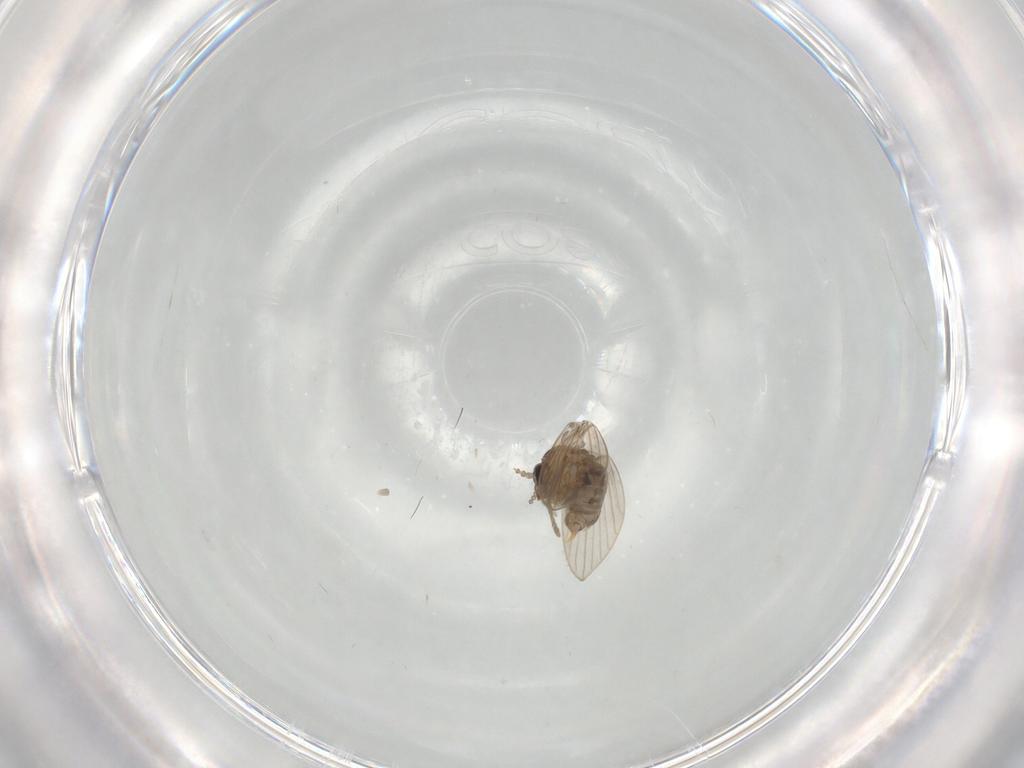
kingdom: Animalia
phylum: Arthropoda
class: Insecta
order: Diptera
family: Psychodidae
